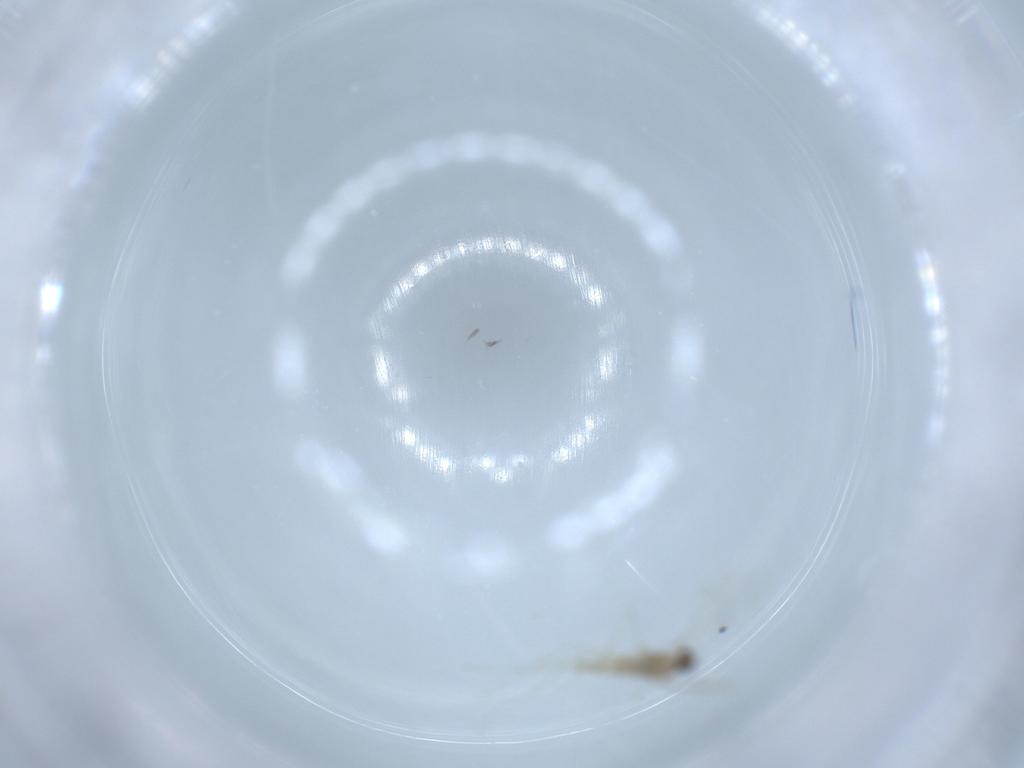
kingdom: Animalia
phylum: Arthropoda
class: Insecta
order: Diptera
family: Cecidomyiidae
